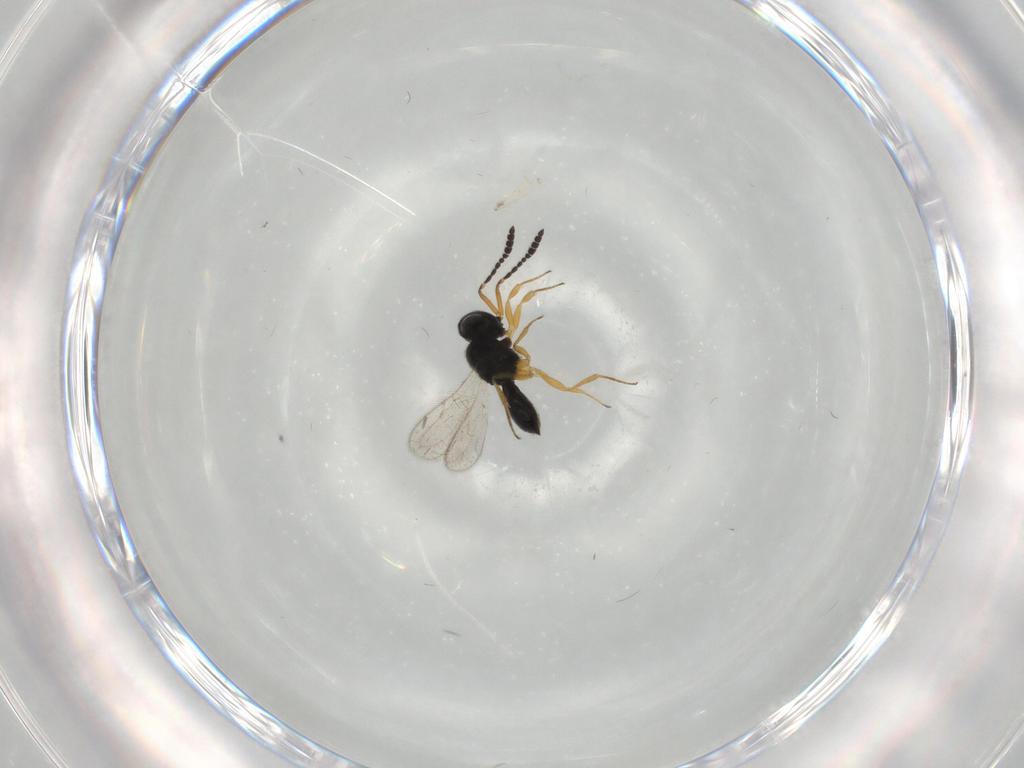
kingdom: Animalia
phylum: Arthropoda
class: Insecta
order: Hymenoptera
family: Scelionidae
